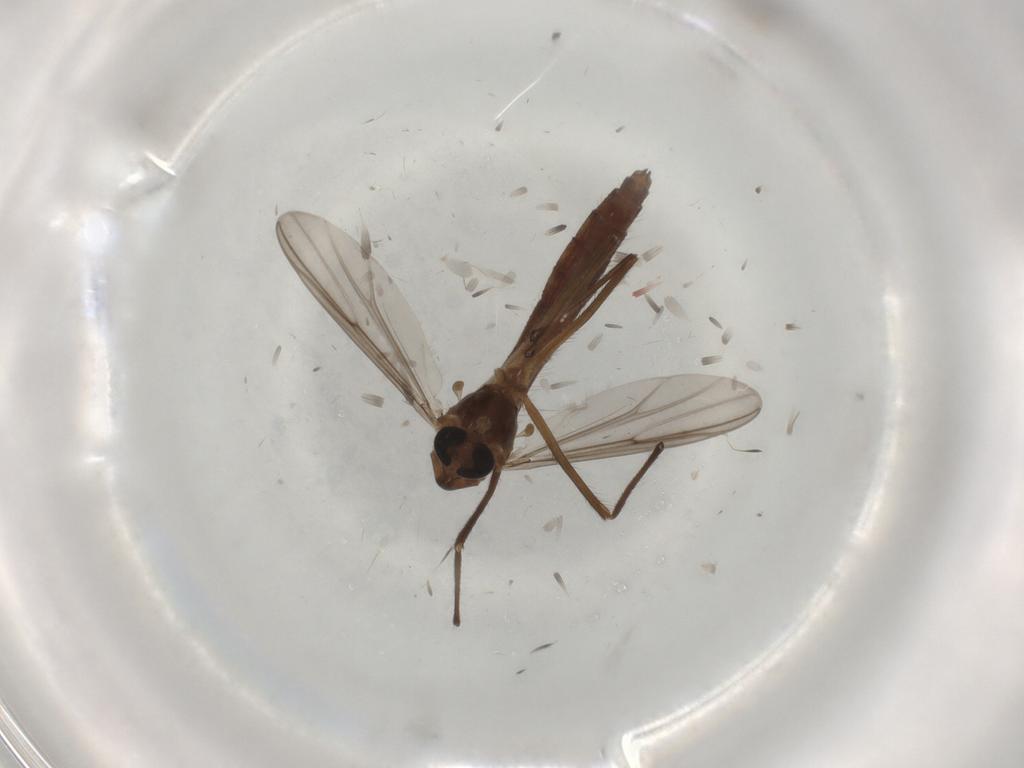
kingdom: Animalia
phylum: Arthropoda
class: Insecta
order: Diptera
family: Chironomidae
